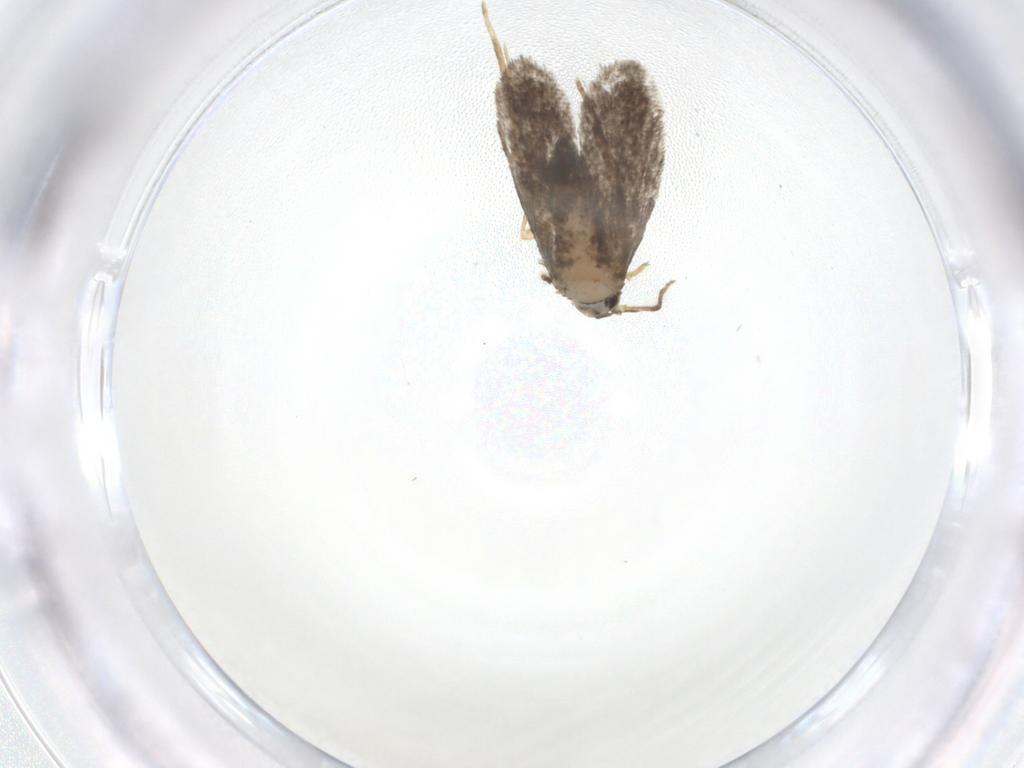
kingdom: Animalia
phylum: Arthropoda
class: Insecta
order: Lepidoptera
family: Psychidae
